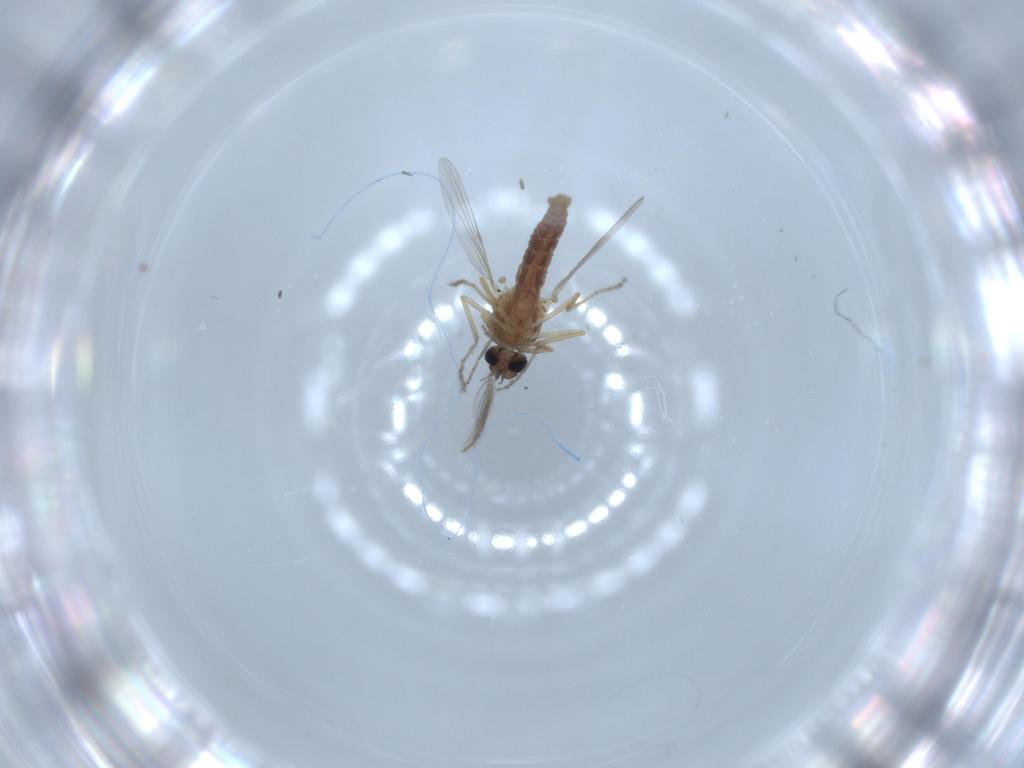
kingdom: Animalia
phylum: Arthropoda
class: Insecta
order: Diptera
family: Ceratopogonidae
